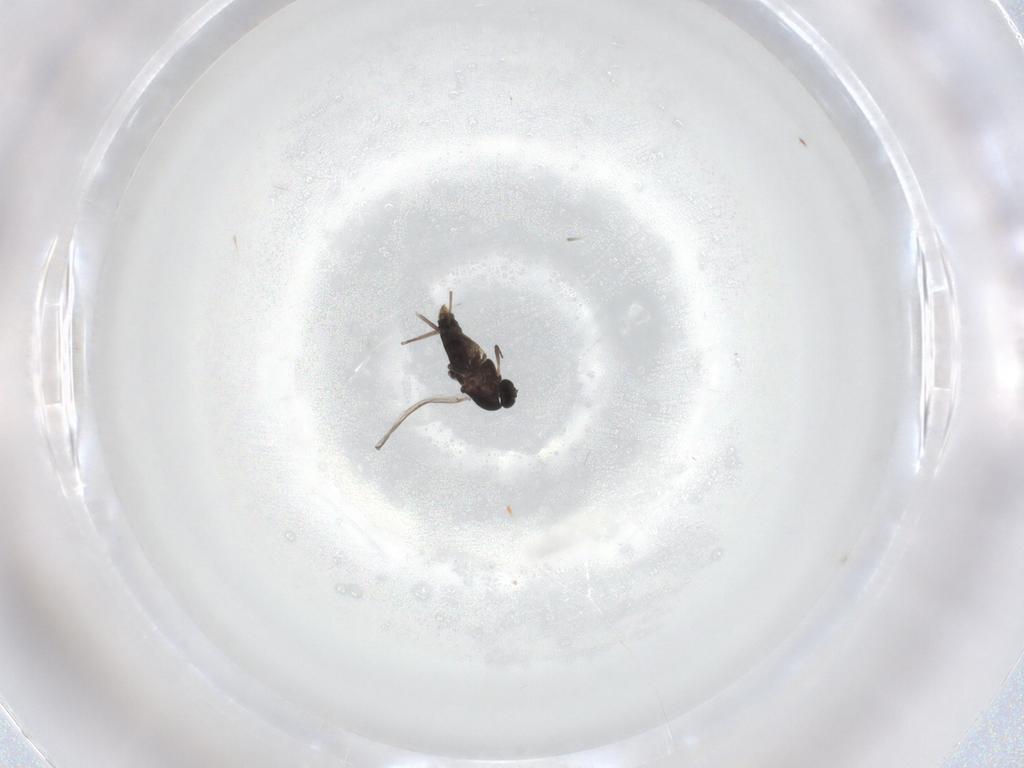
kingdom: Animalia
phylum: Arthropoda
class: Insecta
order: Diptera
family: Chironomidae
